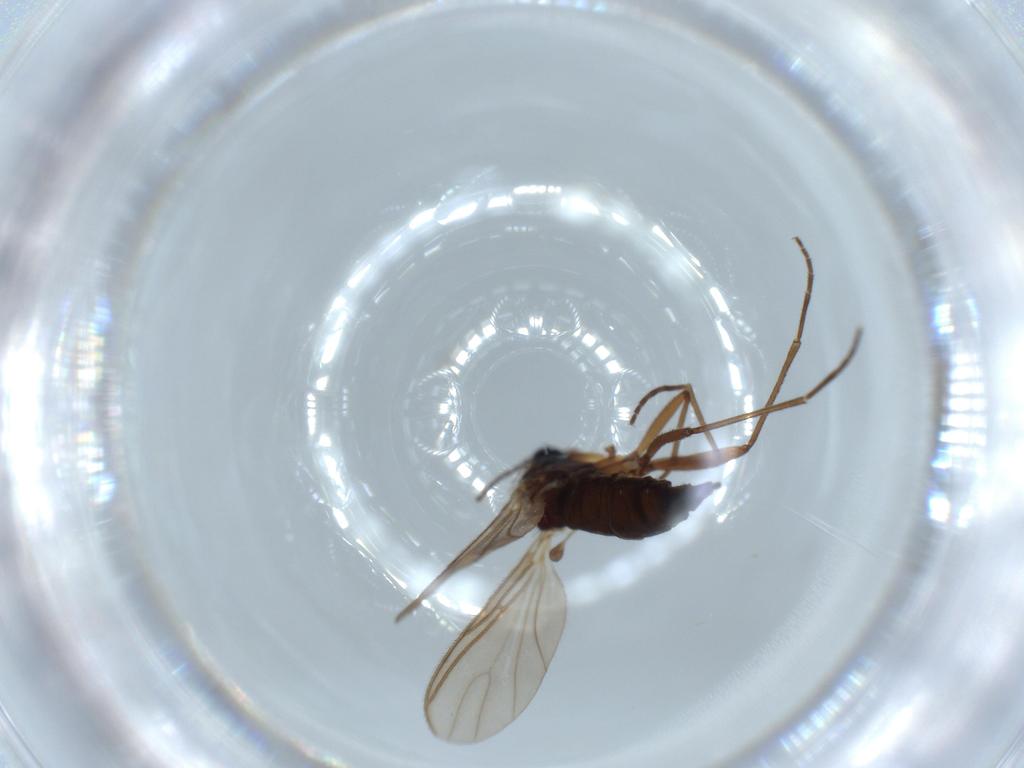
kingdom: Animalia
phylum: Arthropoda
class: Insecta
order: Diptera
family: Sciaridae
